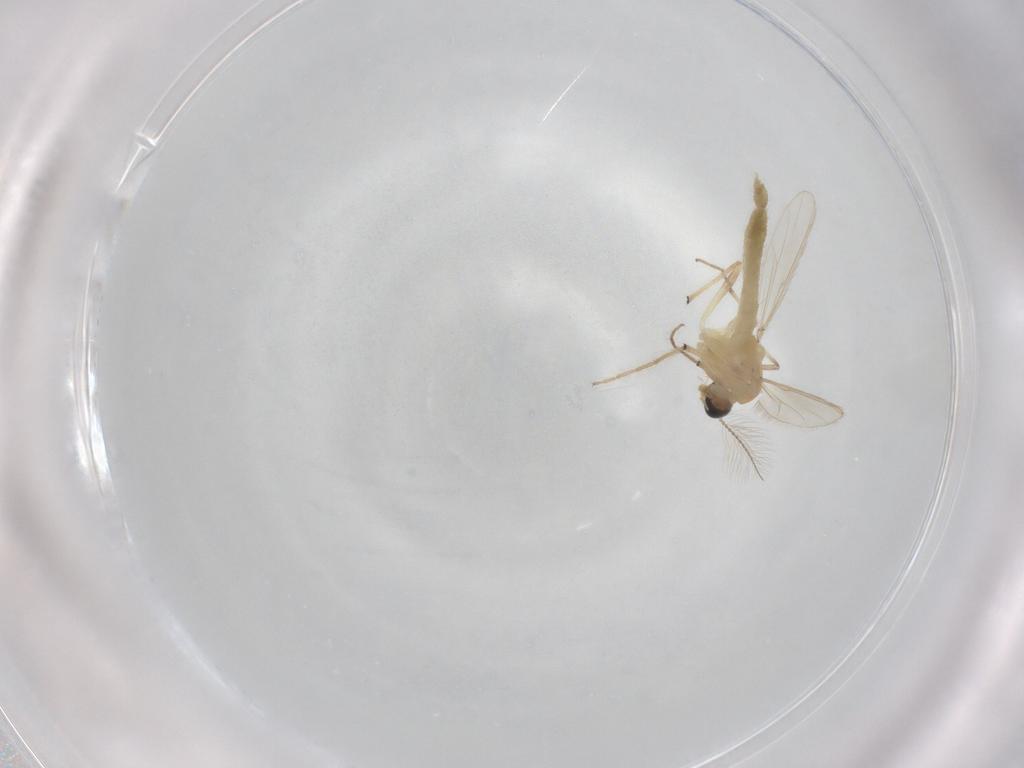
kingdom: Animalia
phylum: Arthropoda
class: Insecta
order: Diptera
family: Chironomidae
